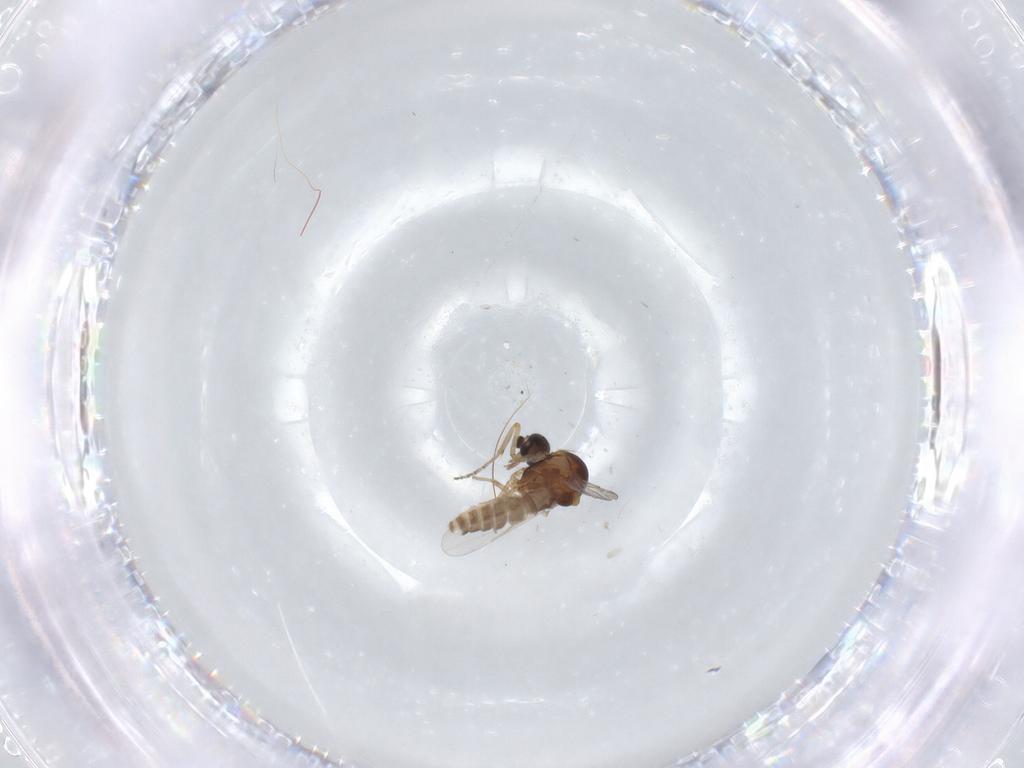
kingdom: Animalia
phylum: Arthropoda
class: Insecta
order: Diptera
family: Ceratopogonidae
